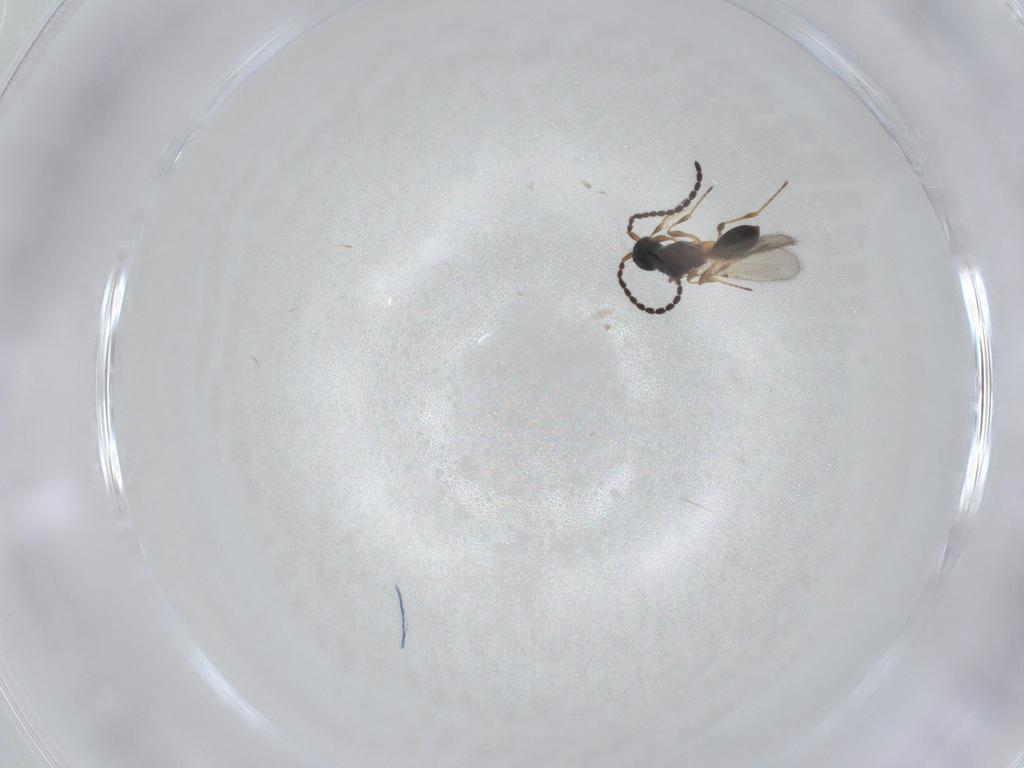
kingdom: Animalia
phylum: Arthropoda
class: Insecta
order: Hymenoptera
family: Diapriidae
